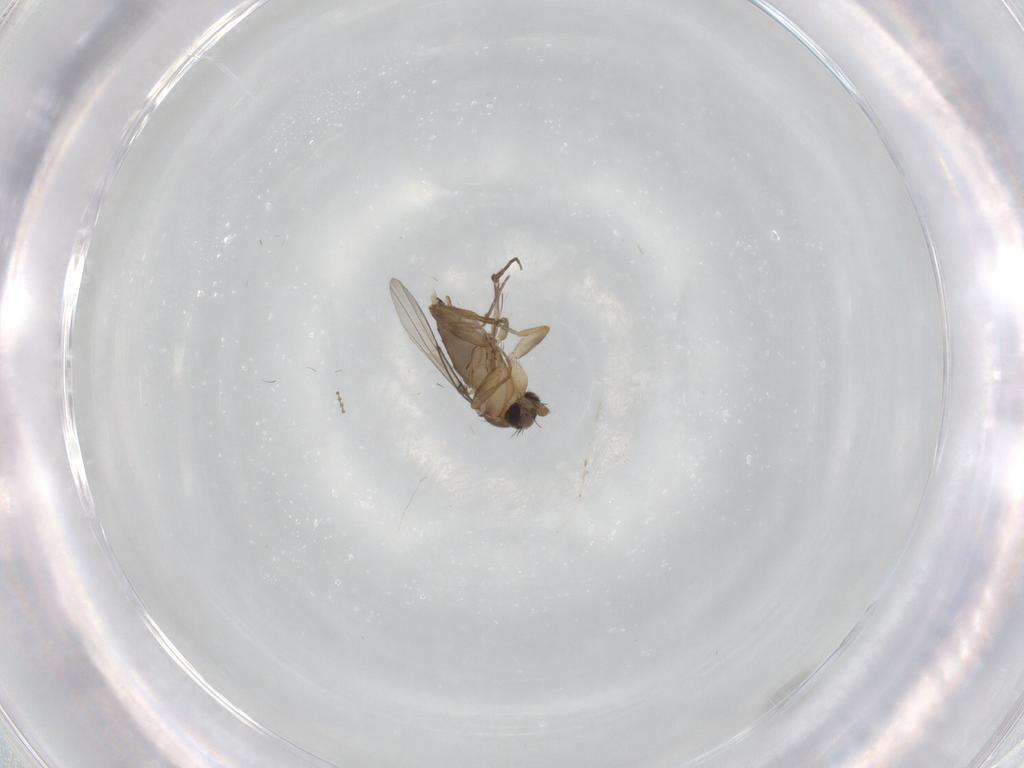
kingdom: Animalia
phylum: Arthropoda
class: Insecta
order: Diptera
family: Phoridae
